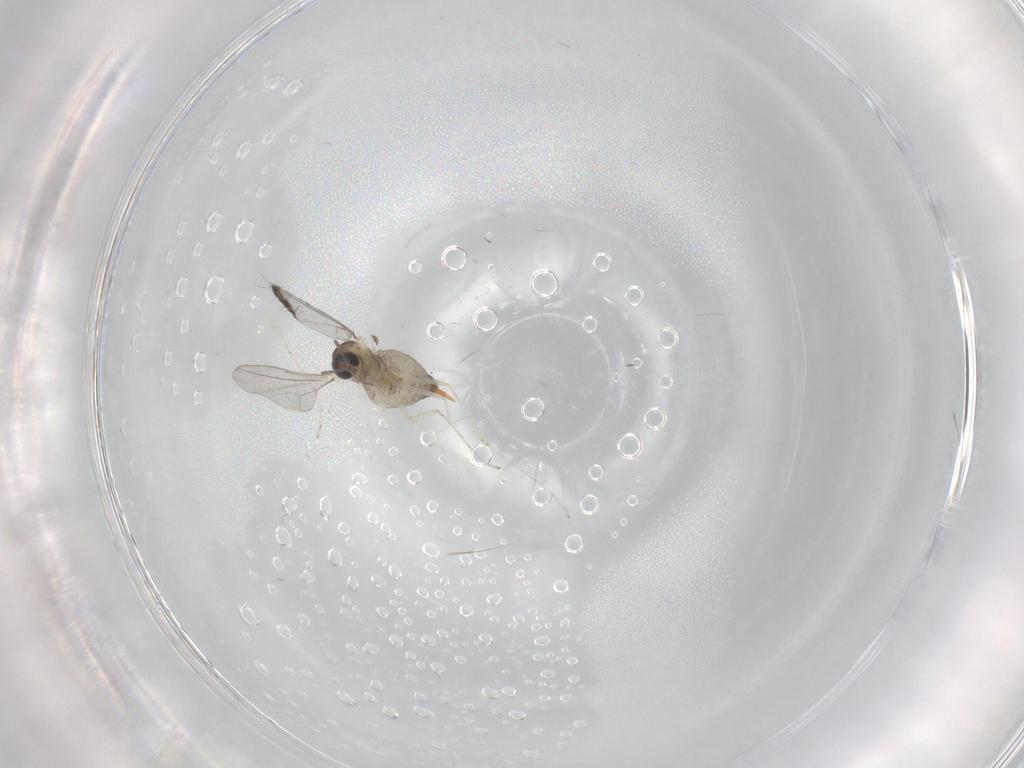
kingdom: Animalia
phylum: Arthropoda
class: Insecta
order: Diptera
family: Cecidomyiidae
